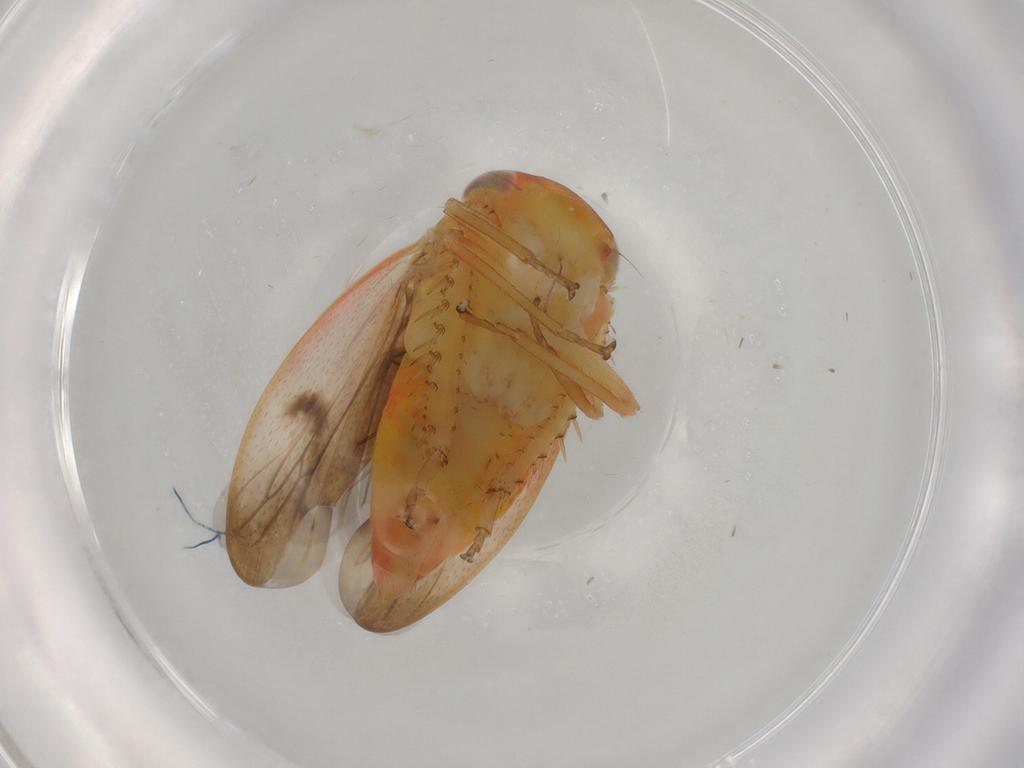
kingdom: Animalia
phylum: Arthropoda
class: Insecta
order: Hemiptera
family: Cicadellidae
